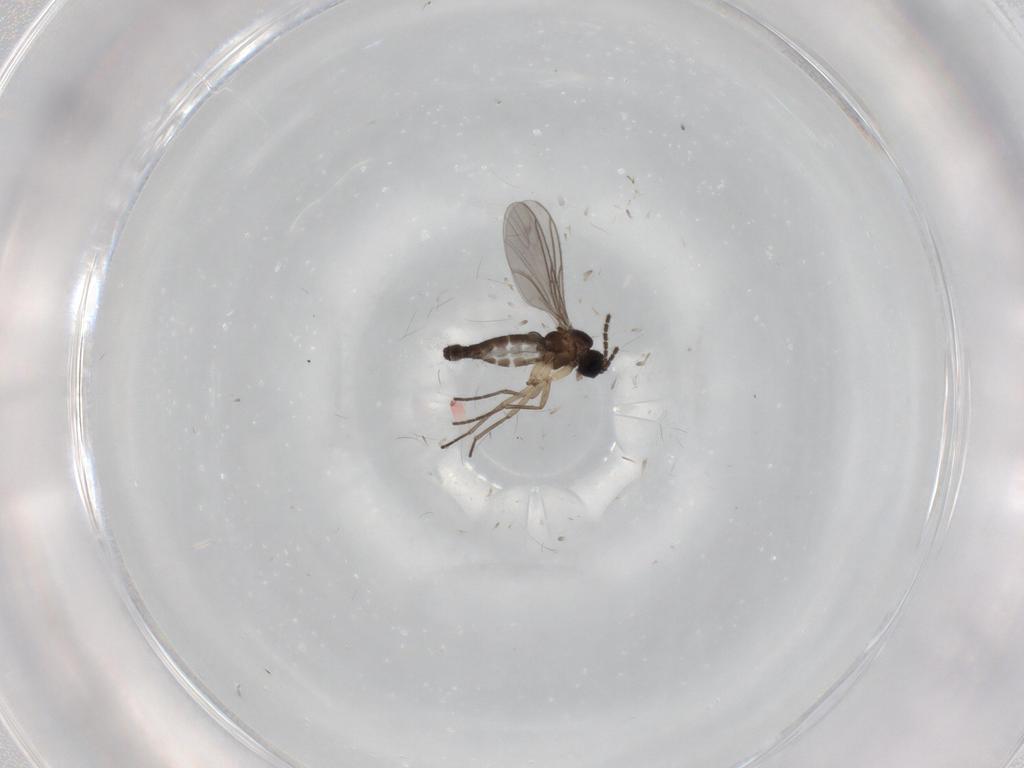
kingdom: Animalia
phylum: Arthropoda
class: Insecta
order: Diptera
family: Sciaridae
